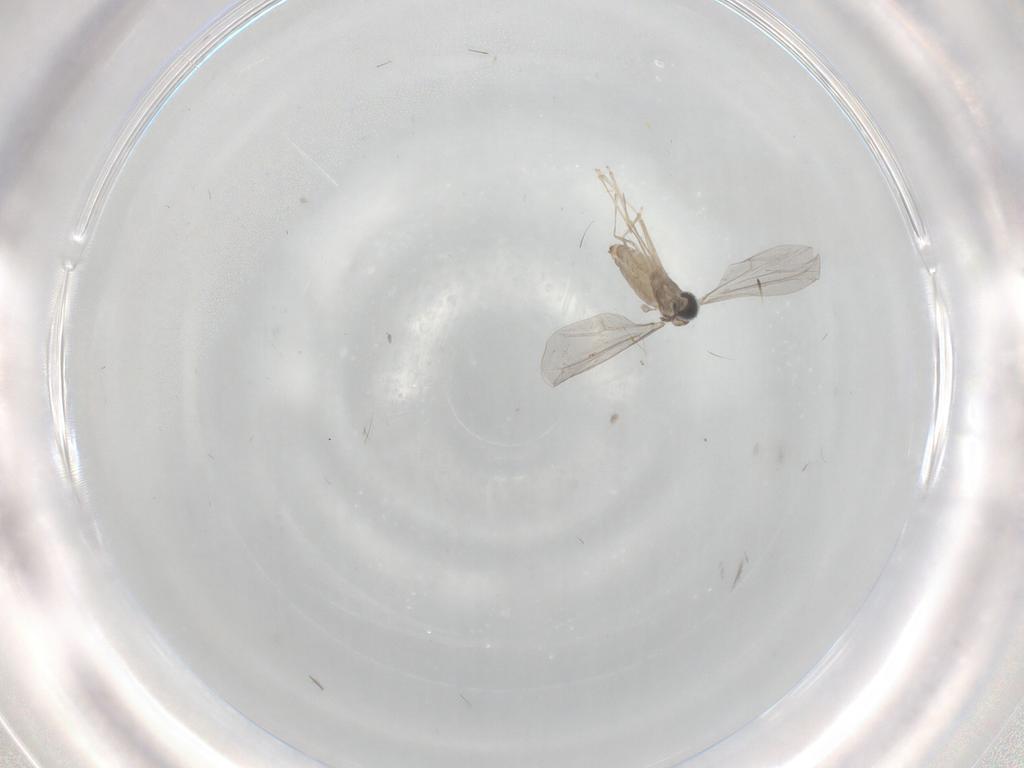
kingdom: Animalia
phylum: Arthropoda
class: Insecta
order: Diptera
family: Cecidomyiidae
